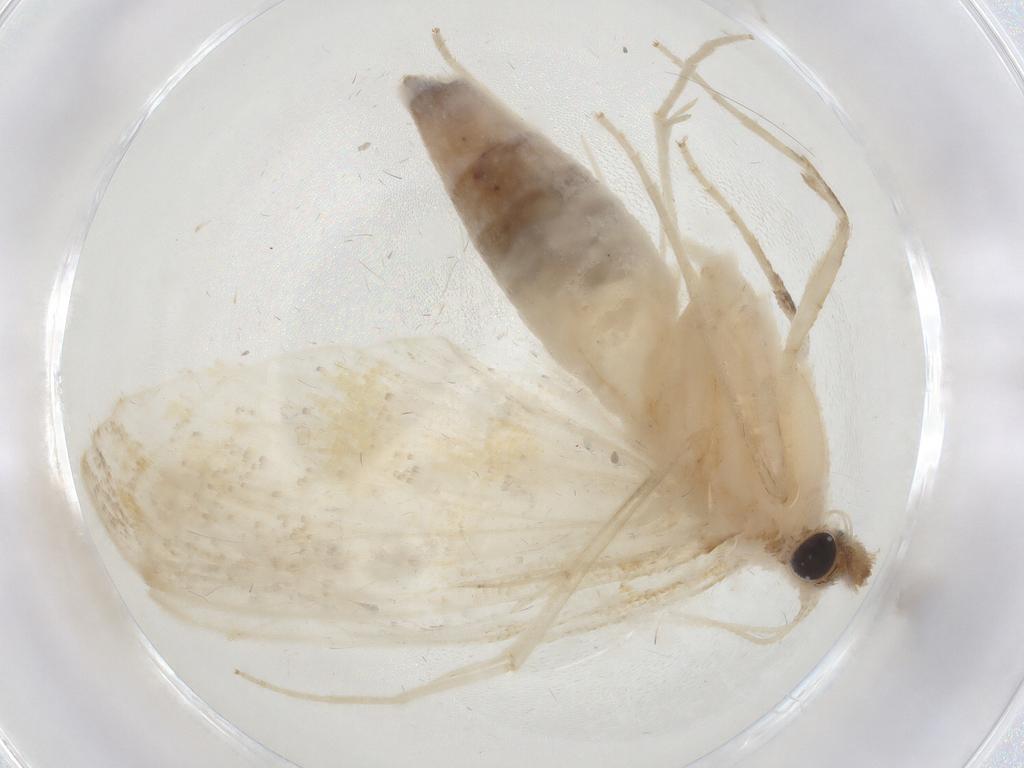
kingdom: Animalia
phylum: Arthropoda
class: Insecta
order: Lepidoptera
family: Crambidae
